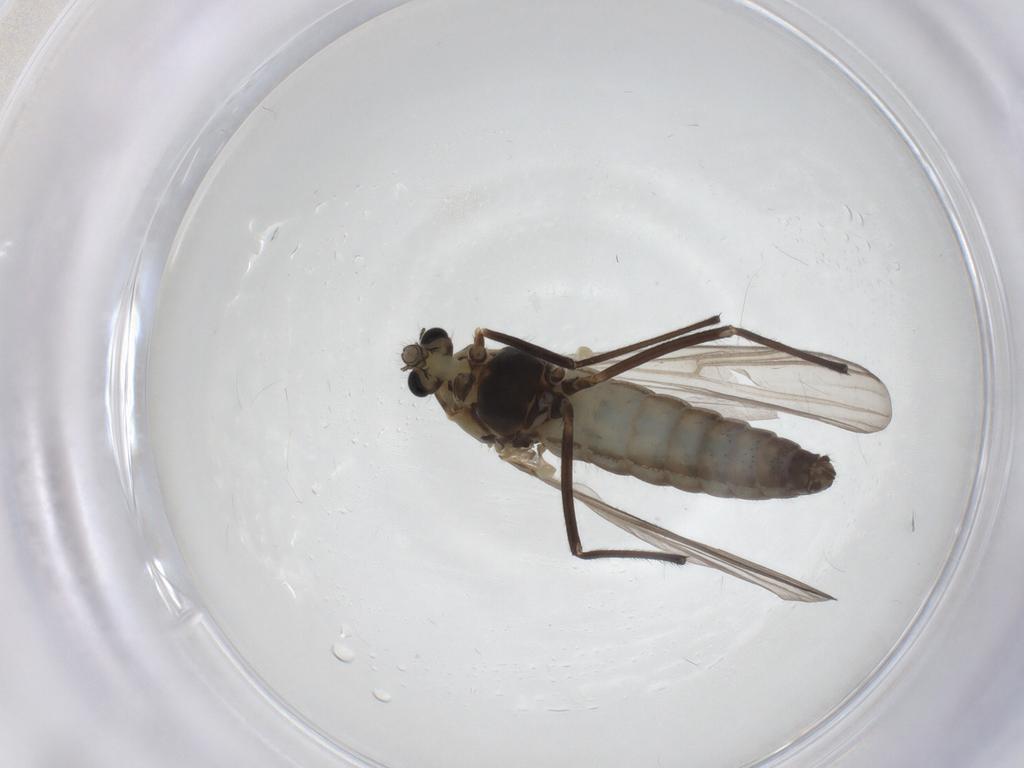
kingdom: Animalia
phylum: Arthropoda
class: Insecta
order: Diptera
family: Chironomidae
